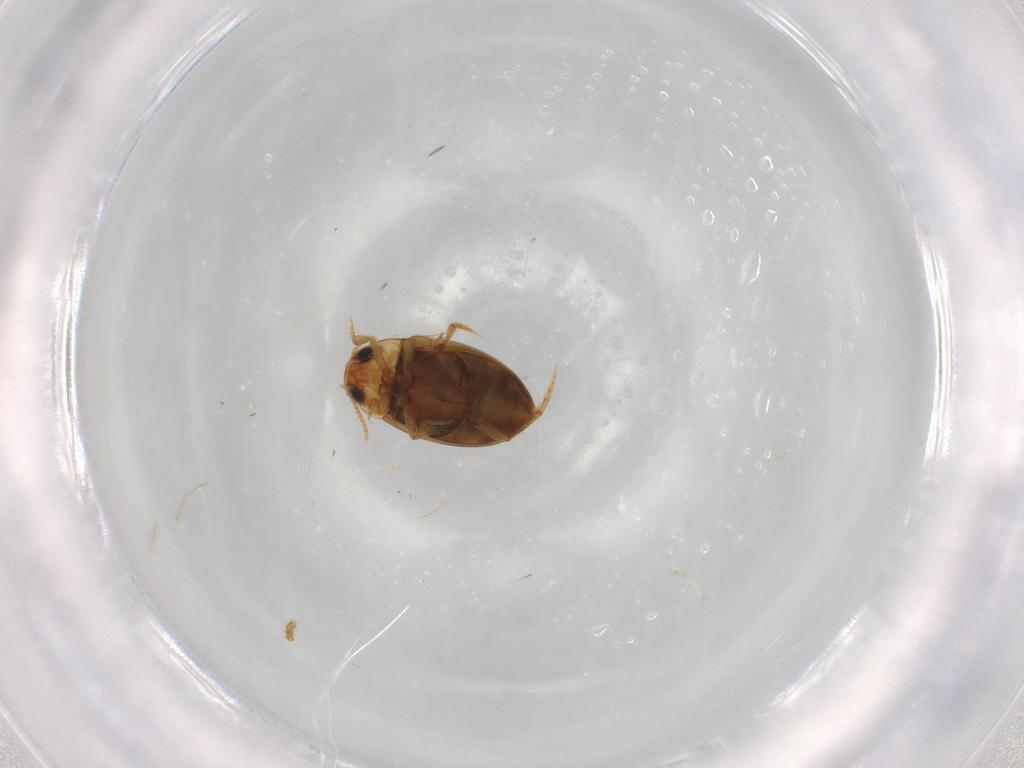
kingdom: Animalia
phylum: Arthropoda
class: Insecta
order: Coleoptera
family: Dytiscidae
